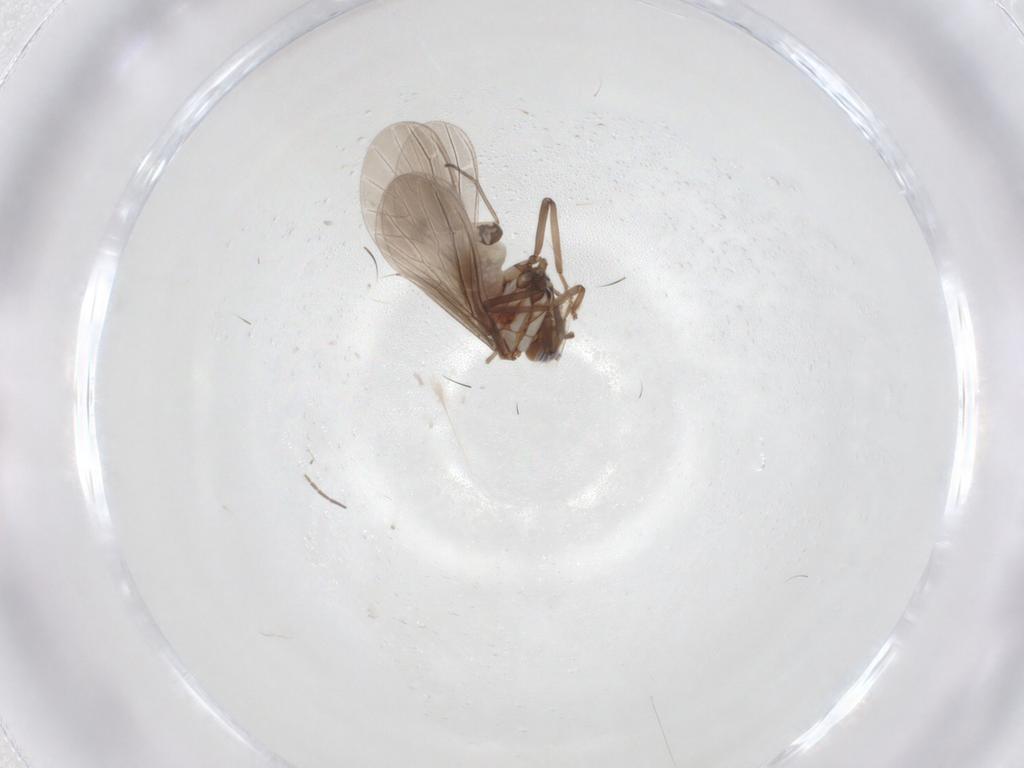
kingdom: Animalia
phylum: Arthropoda
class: Insecta
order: Neuroptera
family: Coniopterygidae
